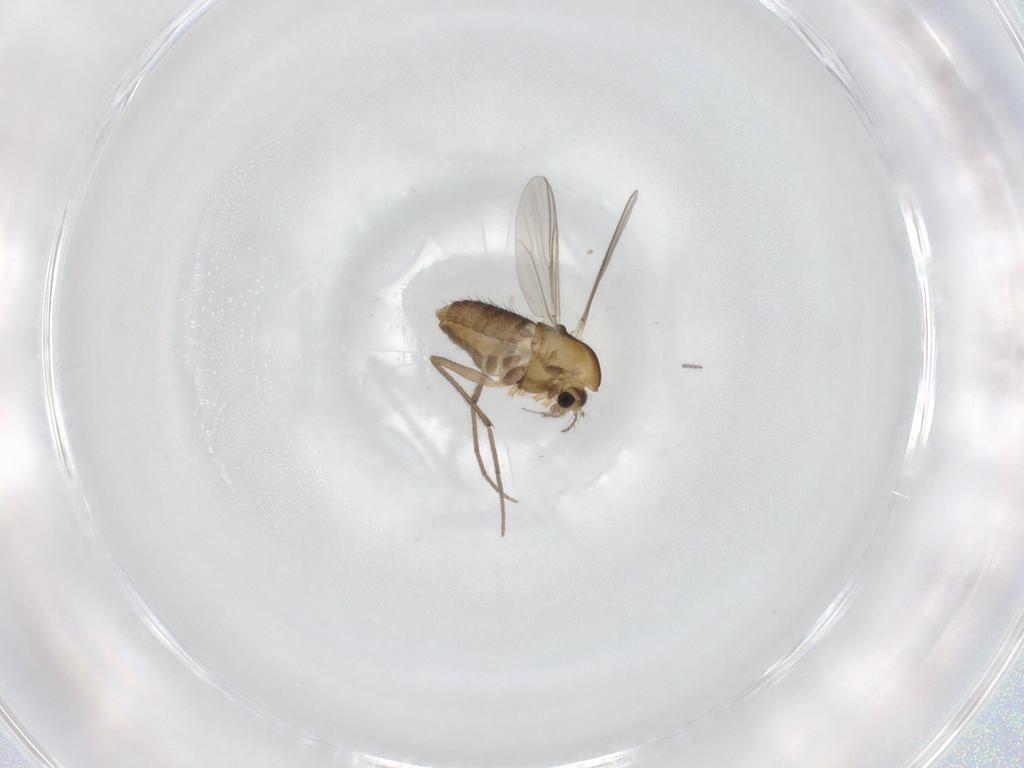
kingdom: Animalia
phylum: Arthropoda
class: Insecta
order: Diptera
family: Chironomidae
